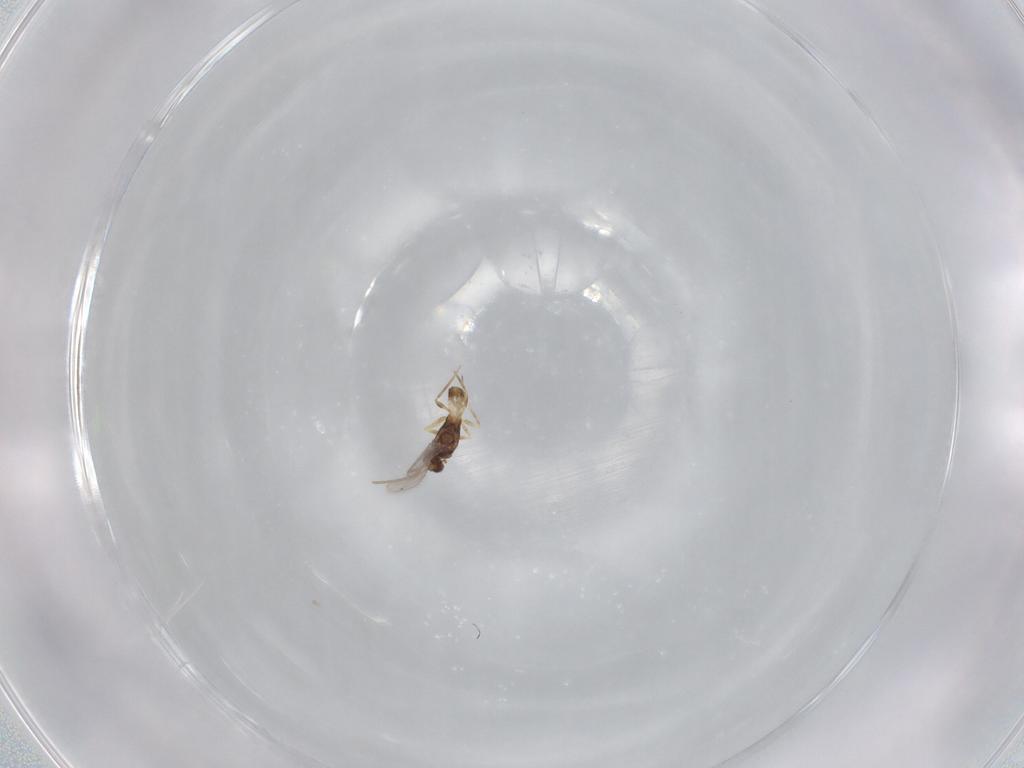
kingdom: Animalia
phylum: Arthropoda
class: Insecta
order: Hymenoptera
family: Mymaridae
